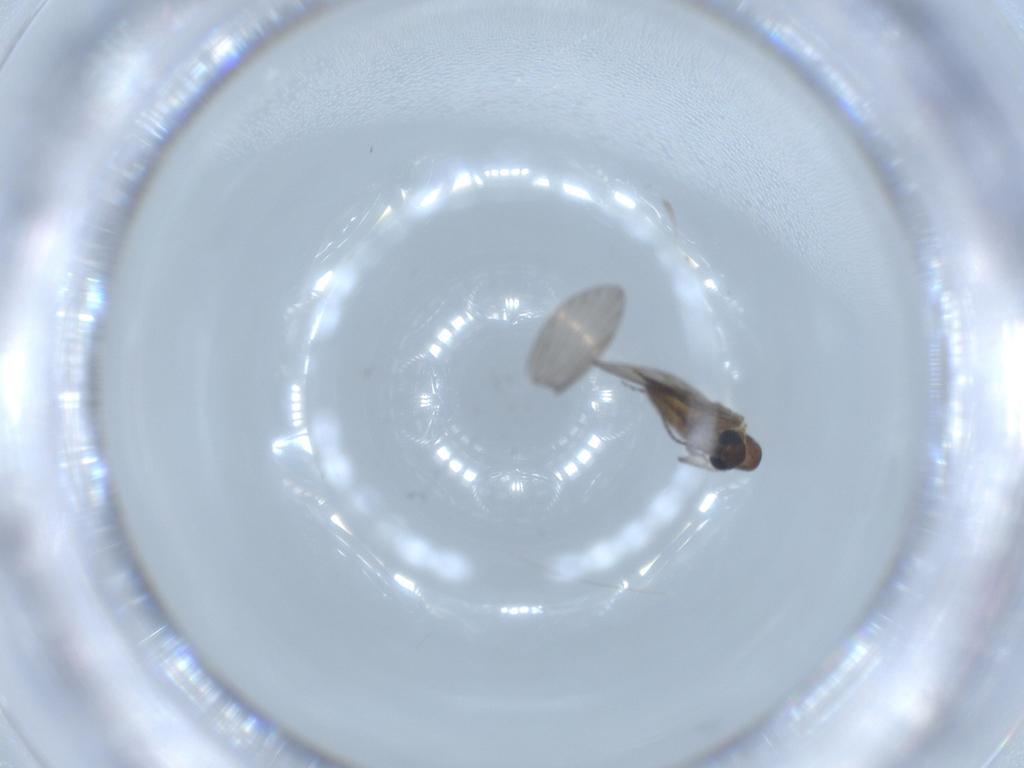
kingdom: Animalia
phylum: Arthropoda
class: Insecta
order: Diptera
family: Psychodidae
